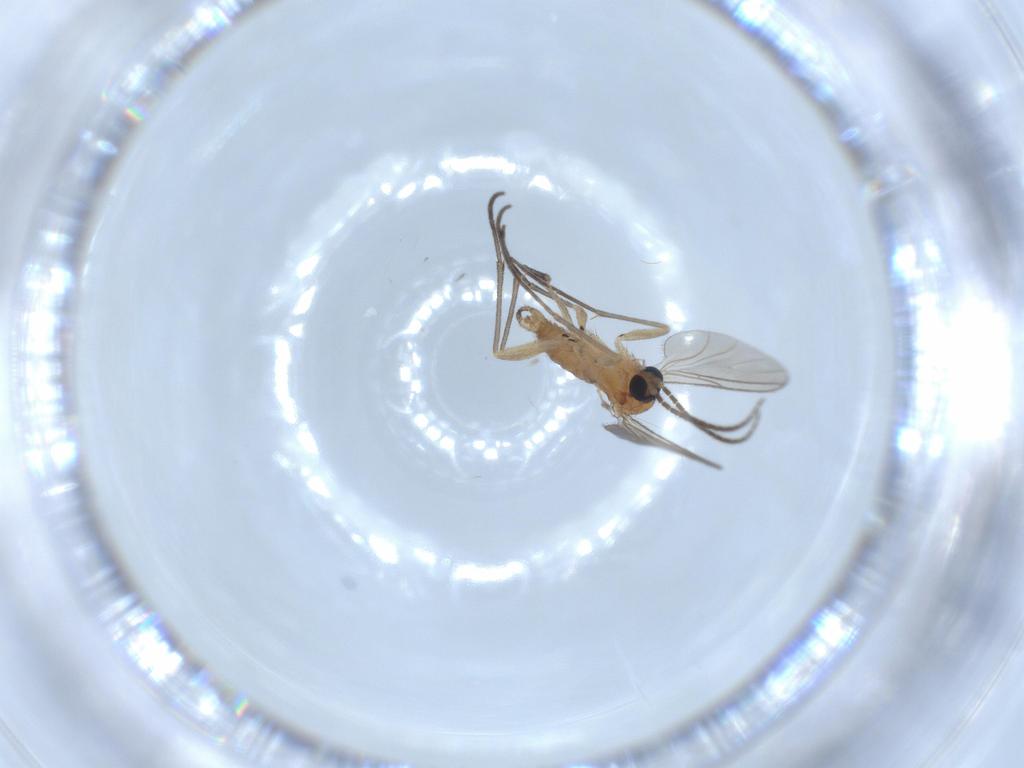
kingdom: Animalia
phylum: Arthropoda
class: Insecta
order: Diptera
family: Sciaridae
